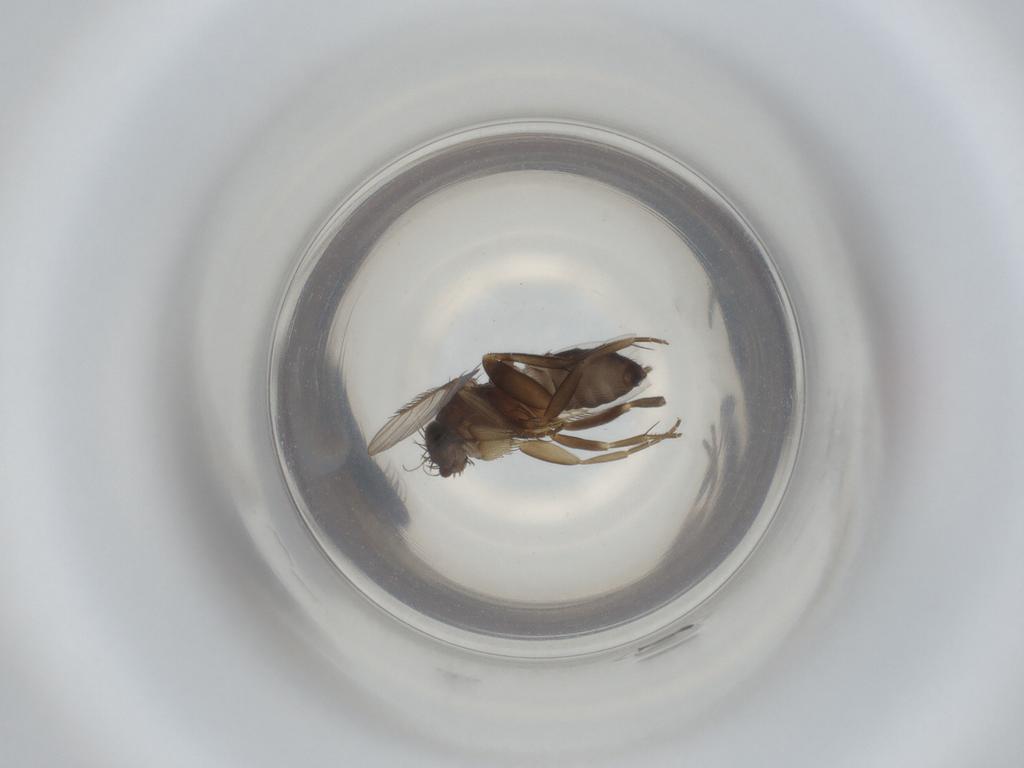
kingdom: Animalia
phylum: Arthropoda
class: Insecta
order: Diptera
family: Phoridae
